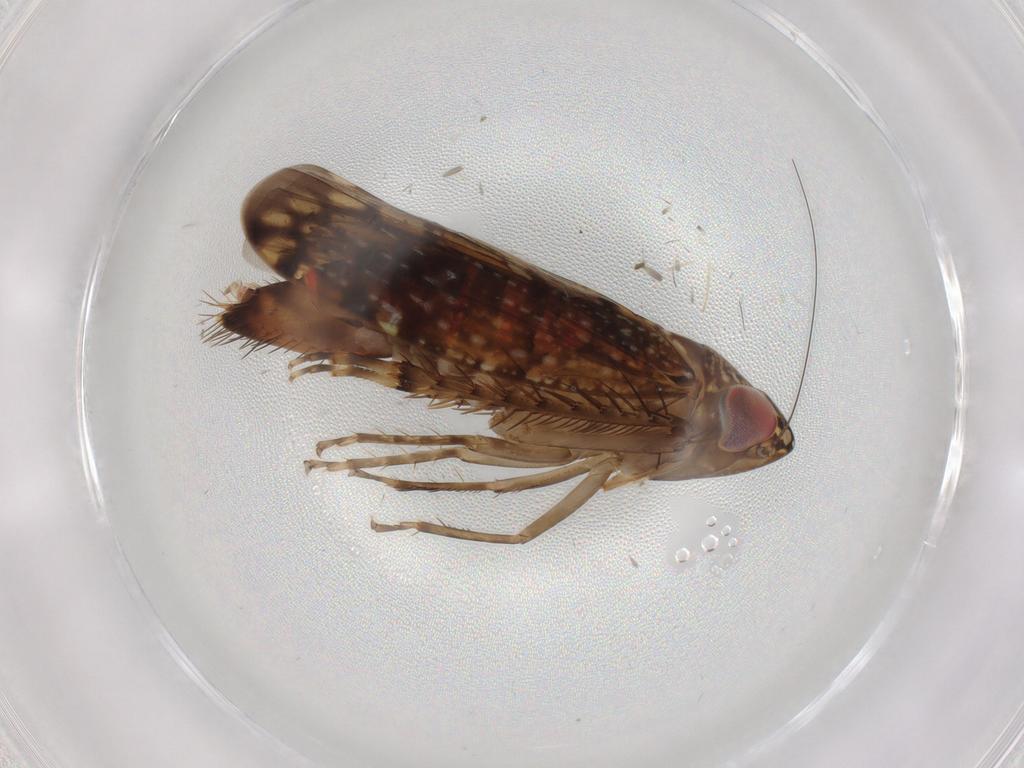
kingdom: Animalia
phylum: Arthropoda
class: Insecta
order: Hemiptera
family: Cicadellidae
